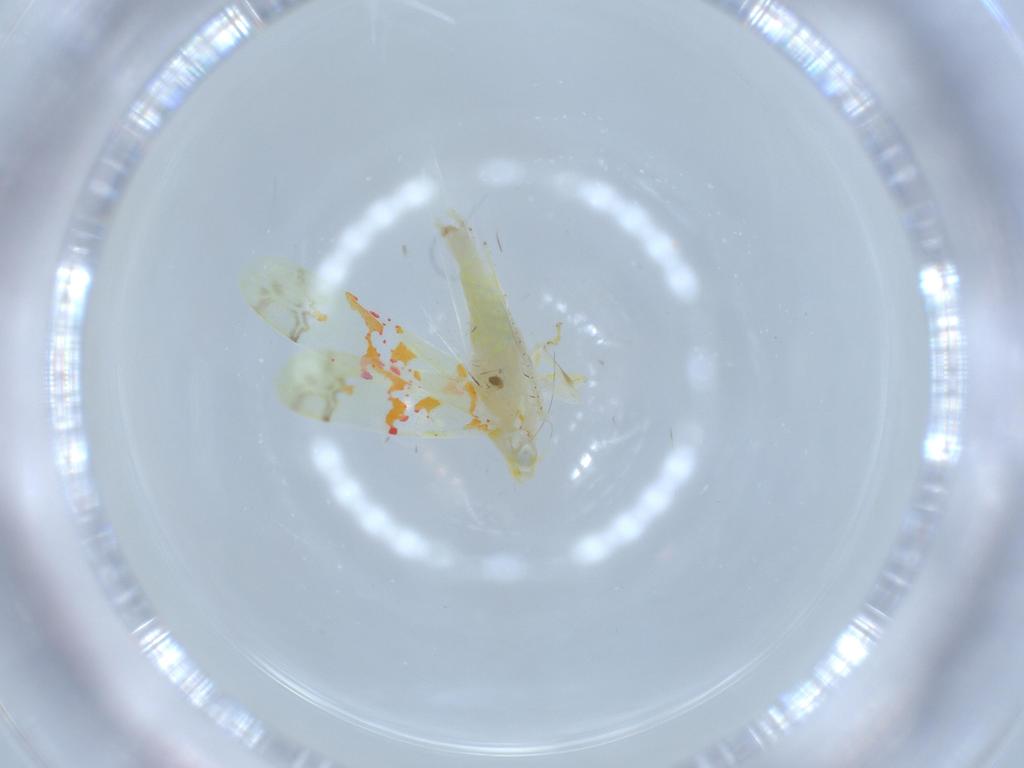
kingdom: Animalia
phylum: Arthropoda
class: Insecta
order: Hemiptera
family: Cicadellidae
